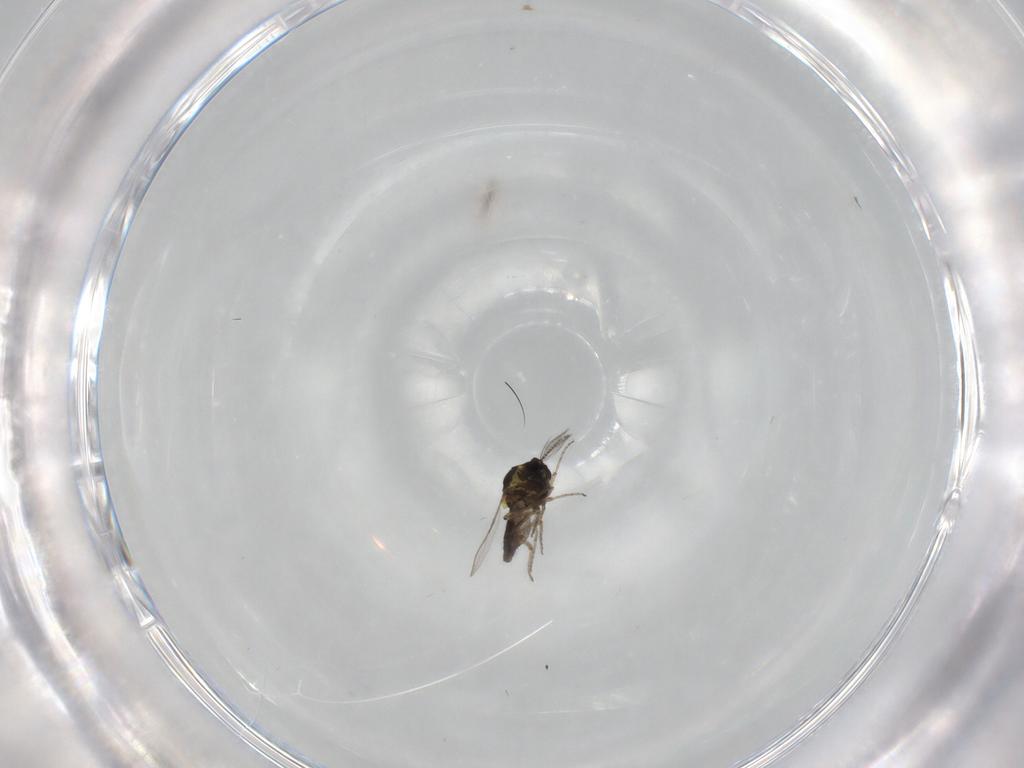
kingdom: Animalia
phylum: Arthropoda
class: Insecta
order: Diptera
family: Ceratopogonidae
